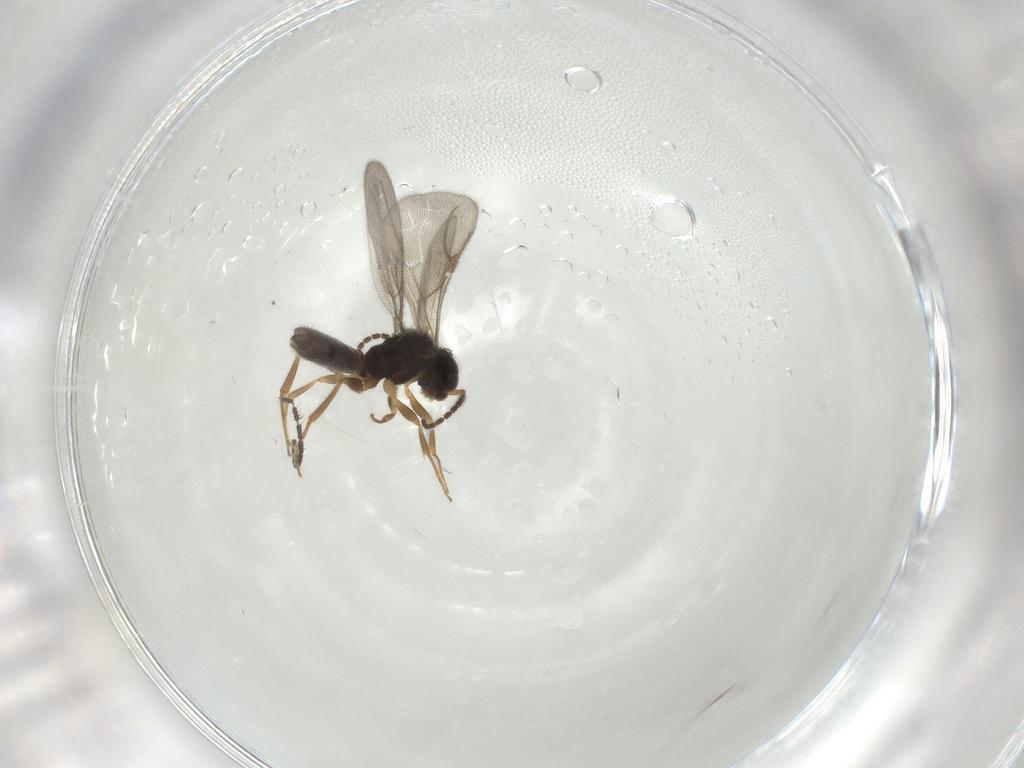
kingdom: Animalia
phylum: Arthropoda
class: Insecta
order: Hymenoptera
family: Bethylidae
